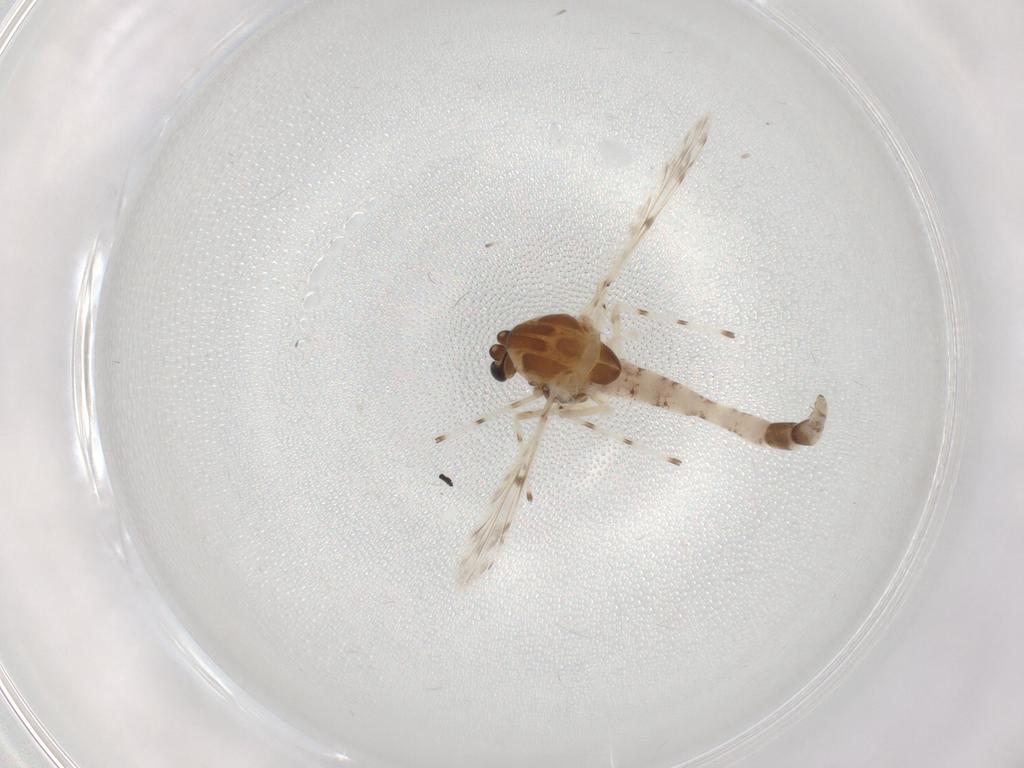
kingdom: Animalia
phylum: Arthropoda
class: Insecta
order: Diptera
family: Chironomidae
